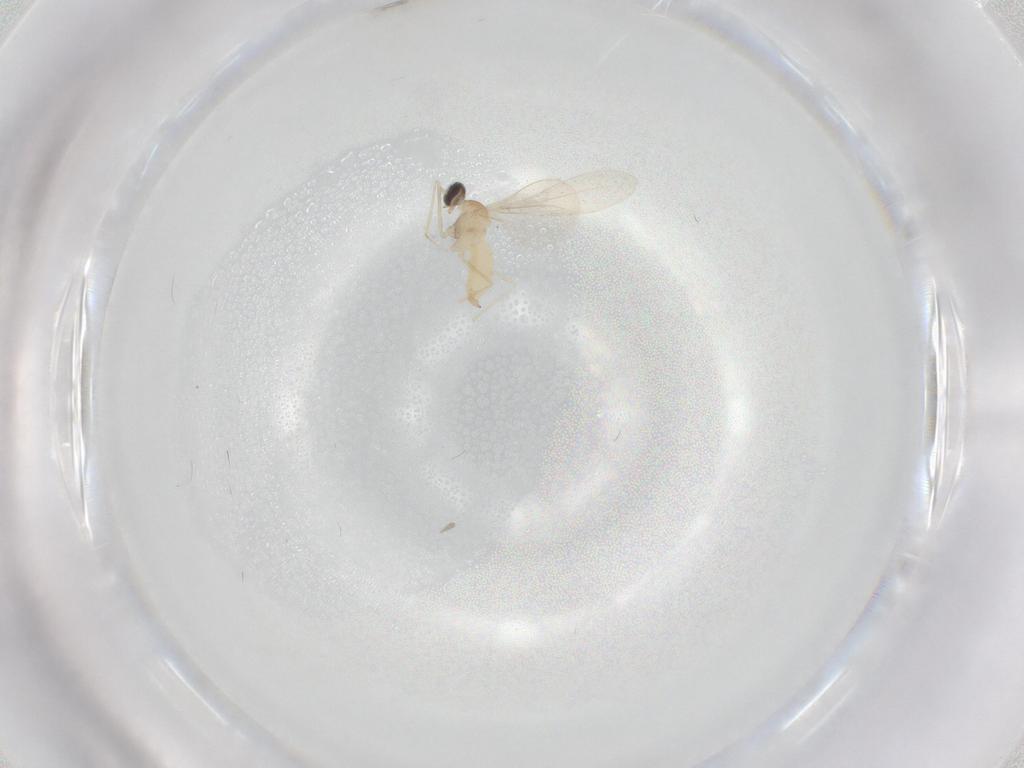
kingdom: Animalia
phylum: Arthropoda
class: Insecta
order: Diptera
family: Cecidomyiidae
